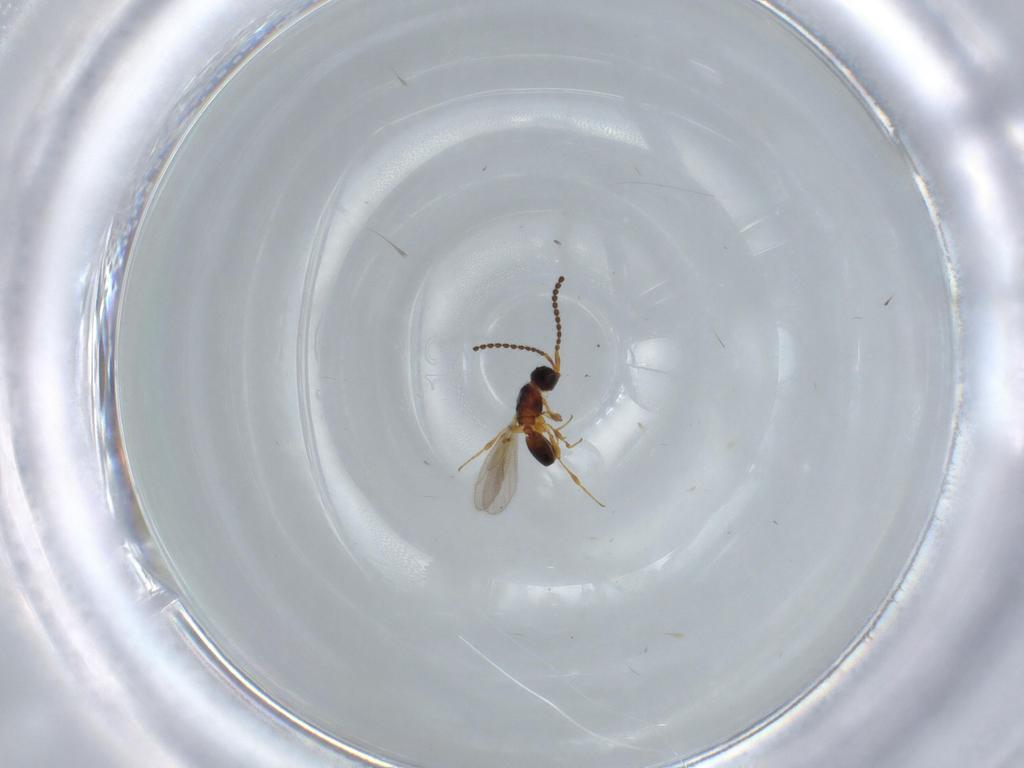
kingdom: Animalia
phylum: Arthropoda
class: Insecta
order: Hymenoptera
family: Diapriidae
